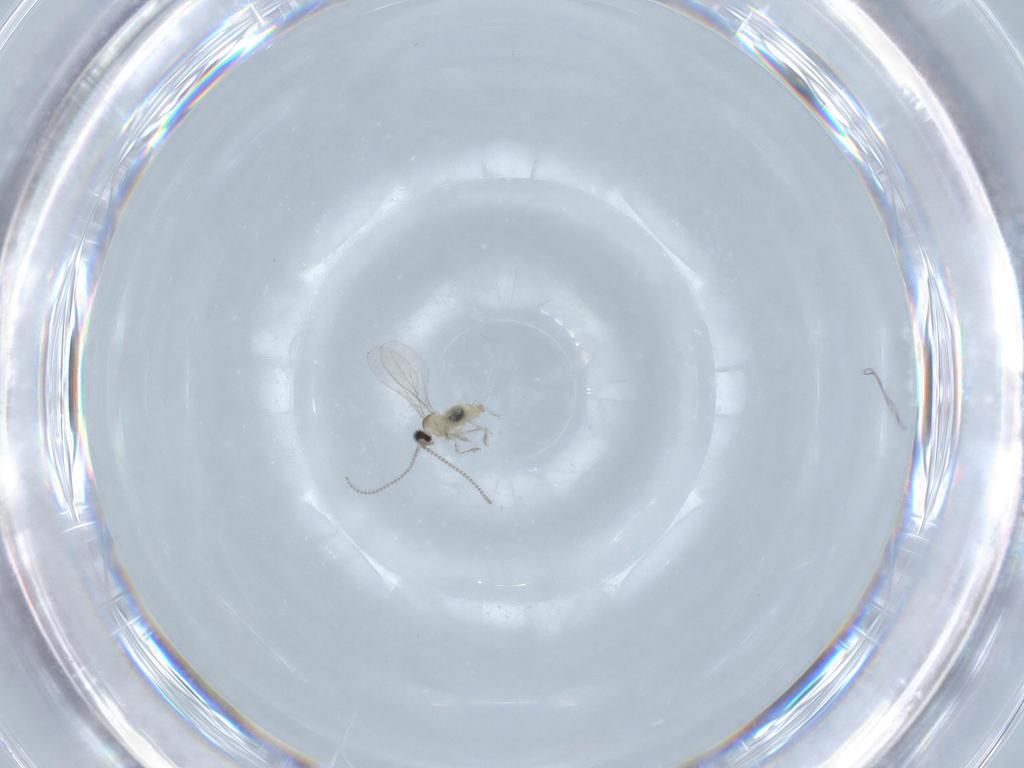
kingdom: Animalia
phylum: Arthropoda
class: Insecta
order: Diptera
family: Cecidomyiidae
